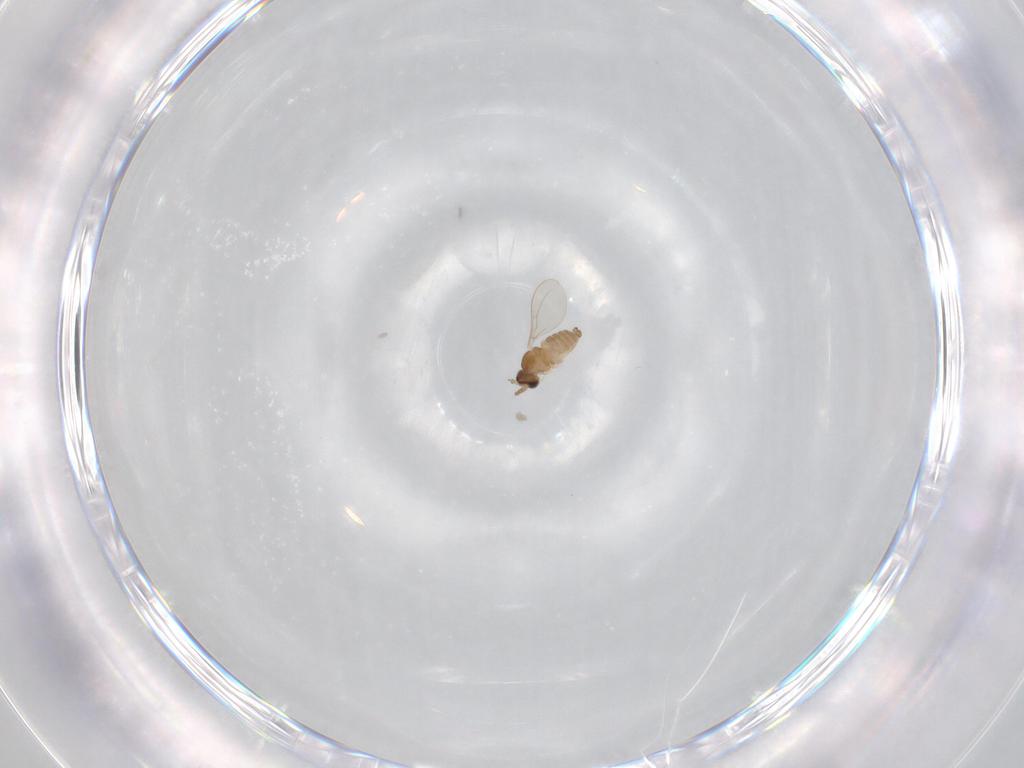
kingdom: Animalia
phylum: Arthropoda
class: Insecta
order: Diptera
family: Cecidomyiidae
